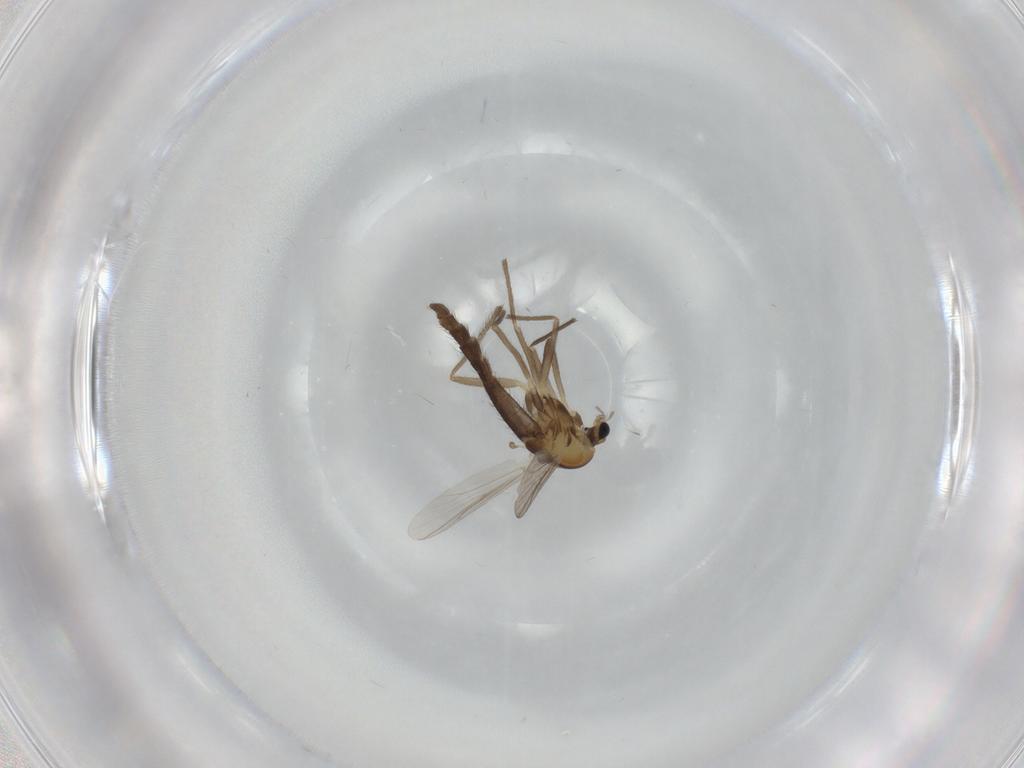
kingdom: Animalia
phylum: Arthropoda
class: Insecta
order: Diptera
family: Chironomidae
